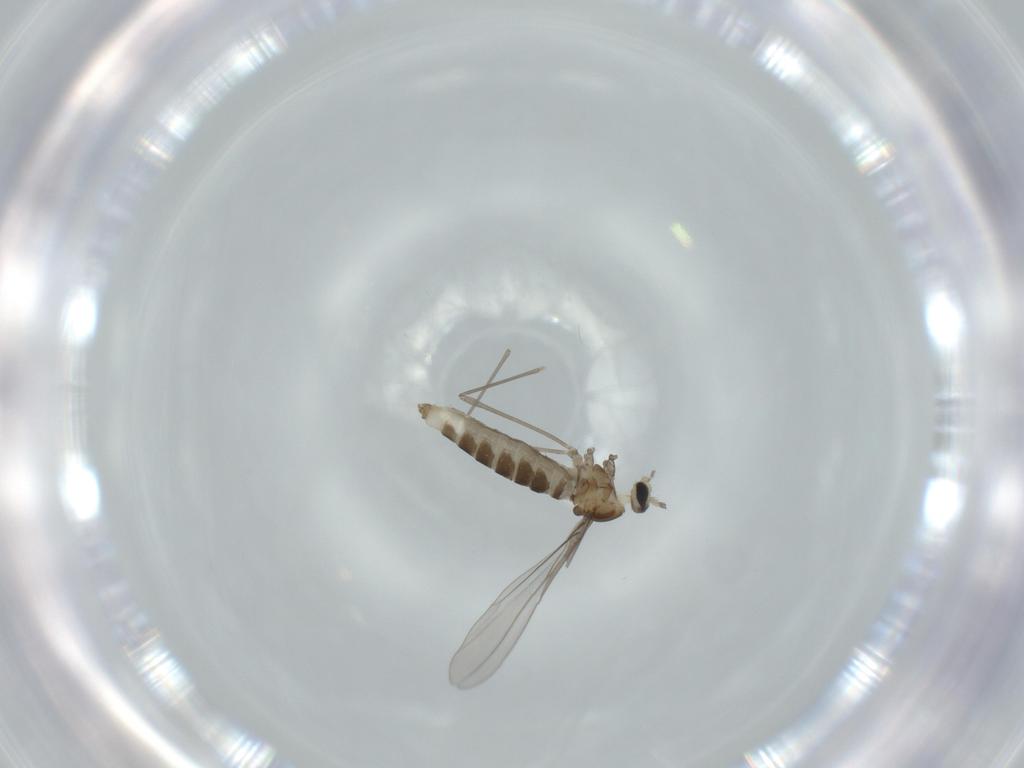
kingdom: Animalia
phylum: Arthropoda
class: Insecta
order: Diptera
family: Cecidomyiidae
